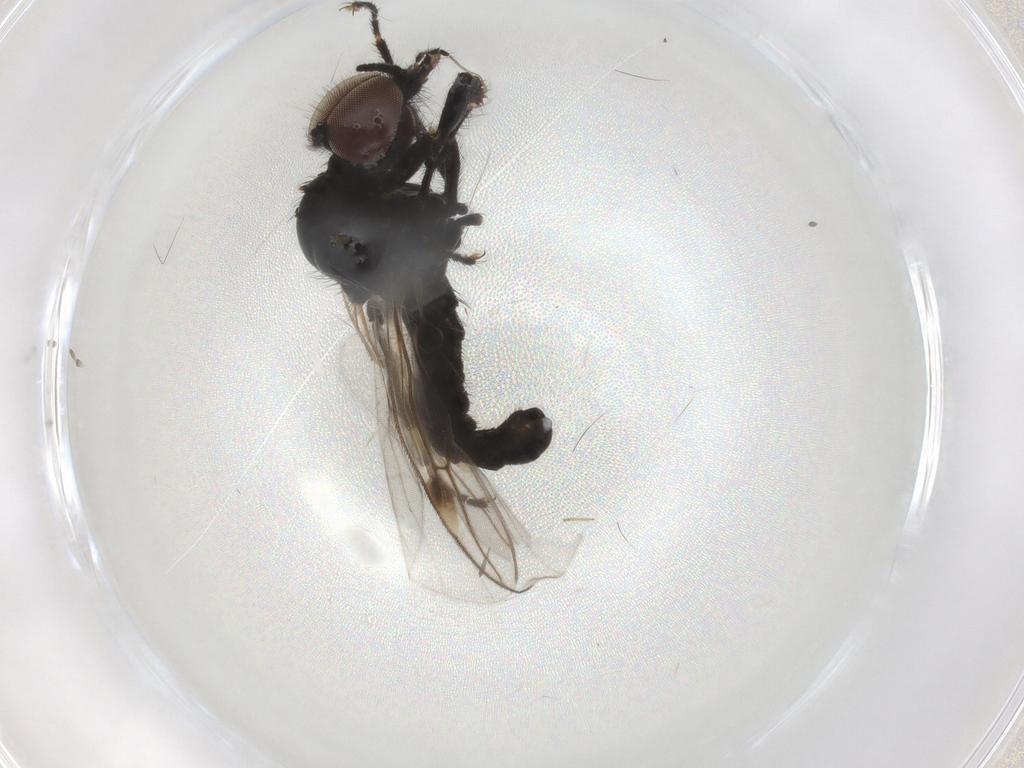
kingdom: Animalia
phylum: Arthropoda
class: Insecta
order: Diptera
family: Bibionidae
